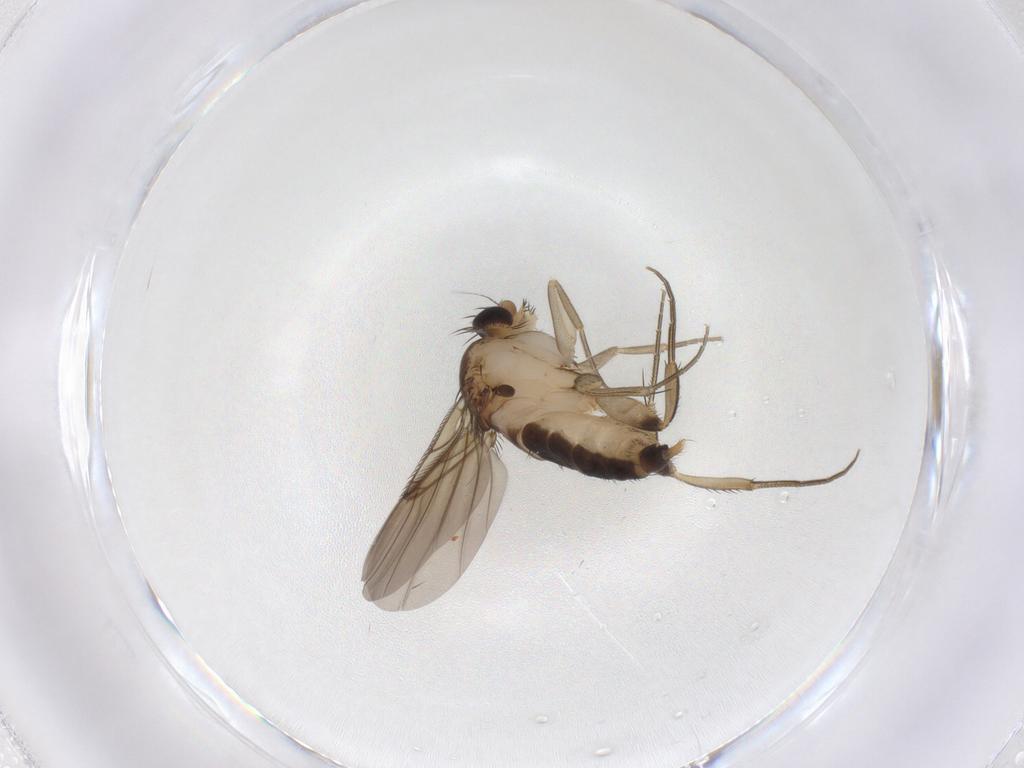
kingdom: Animalia
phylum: Arthropoda
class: Insecta
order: Diptera
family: Phoridae
